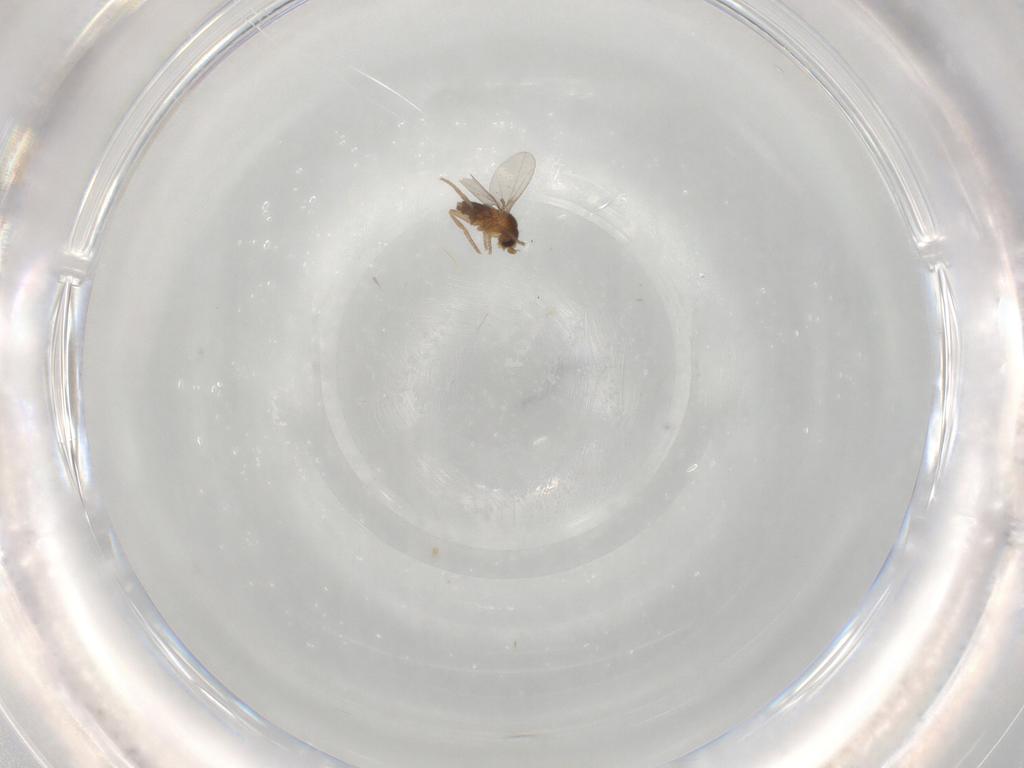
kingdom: Animalia
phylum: Arthropoda
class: Insecta
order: Diptera
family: Phoridae
